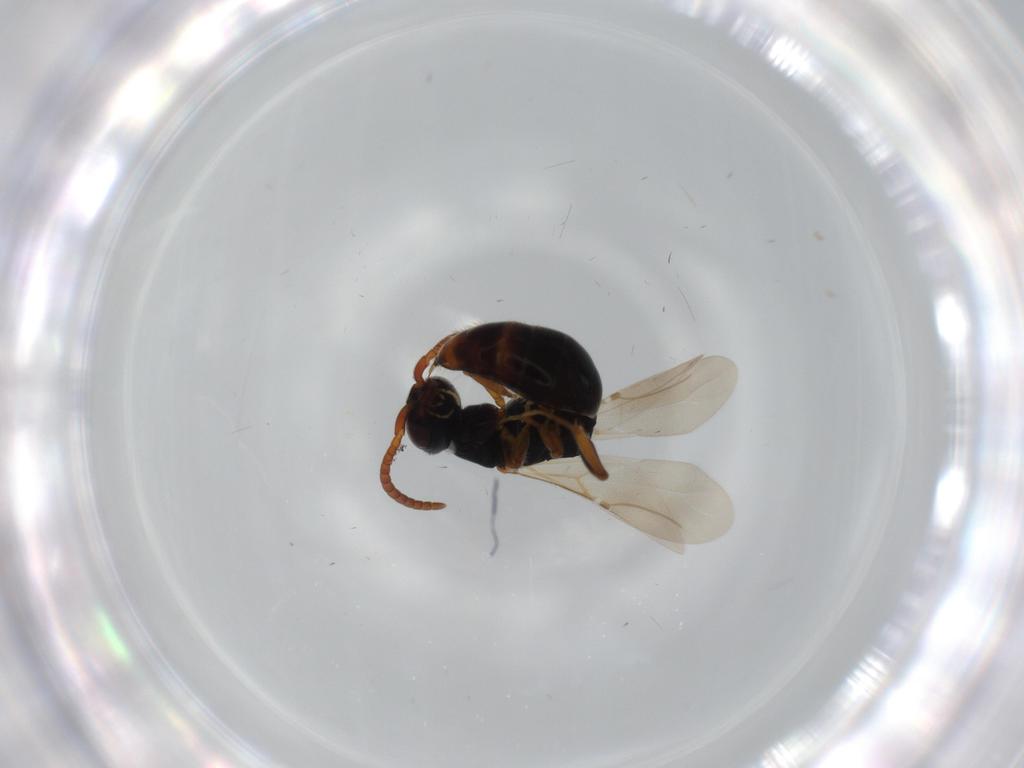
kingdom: Animalia
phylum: Arthropoda
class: Insecta
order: Hymenoptera
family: Bethylidae
